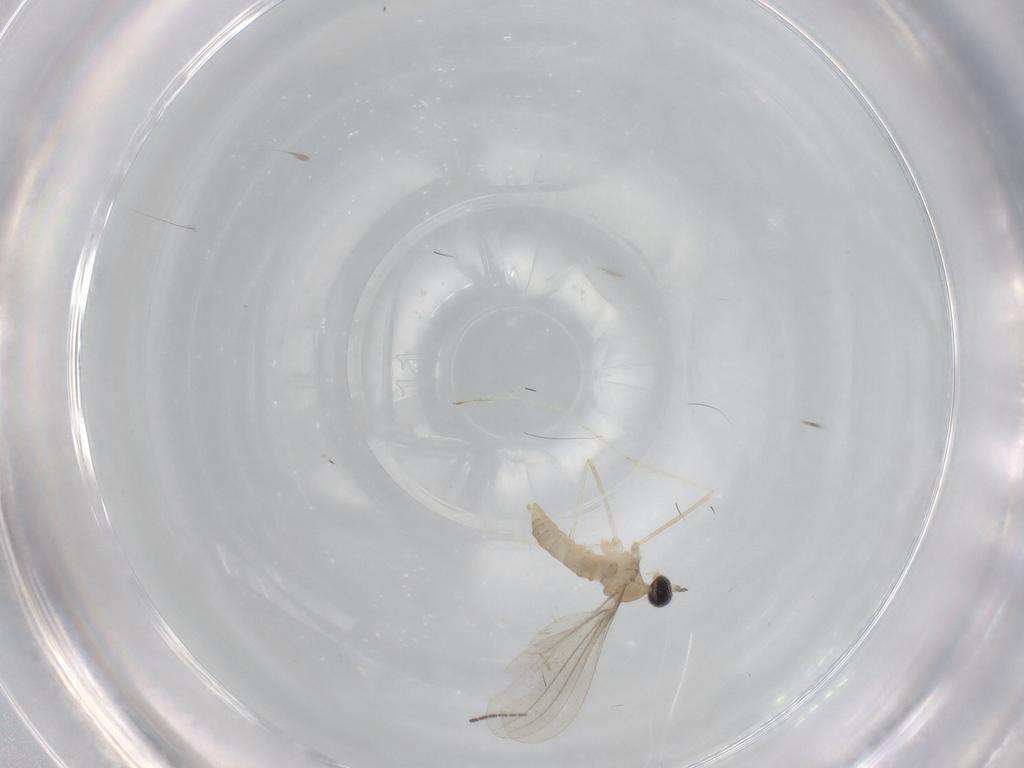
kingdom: Animalia
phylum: Arthropoda
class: Insecta
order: Diptera
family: Sciaridae
